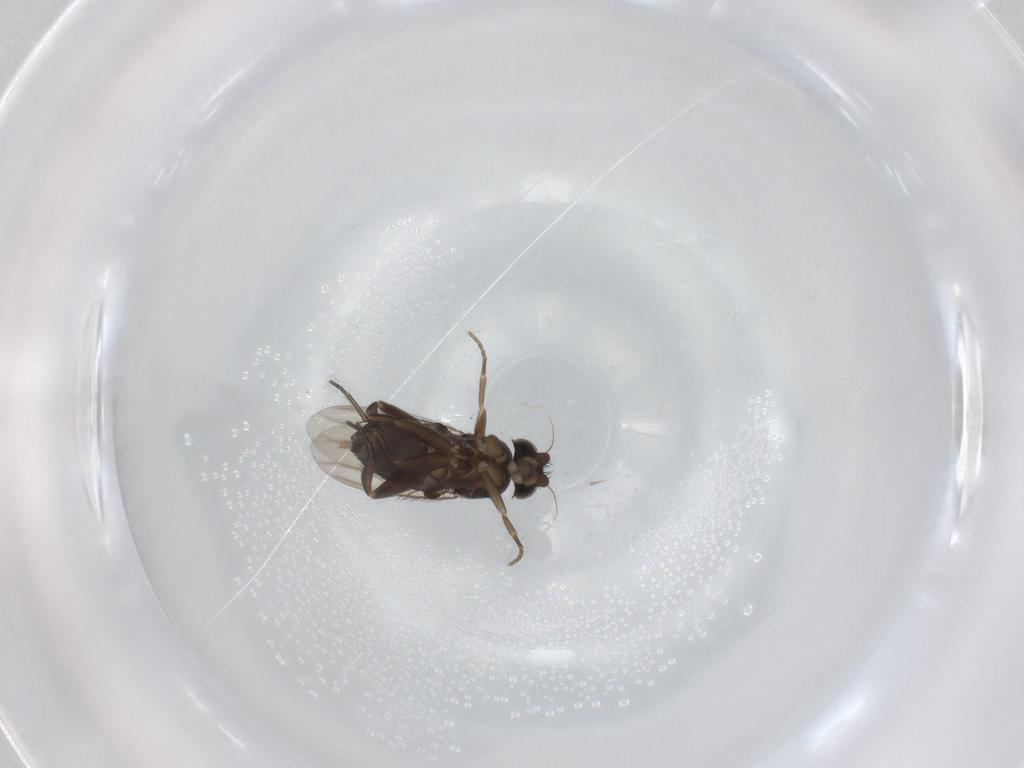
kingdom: Animalia
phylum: Arthropoda
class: Insecta
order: Diptera
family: Phoridae
